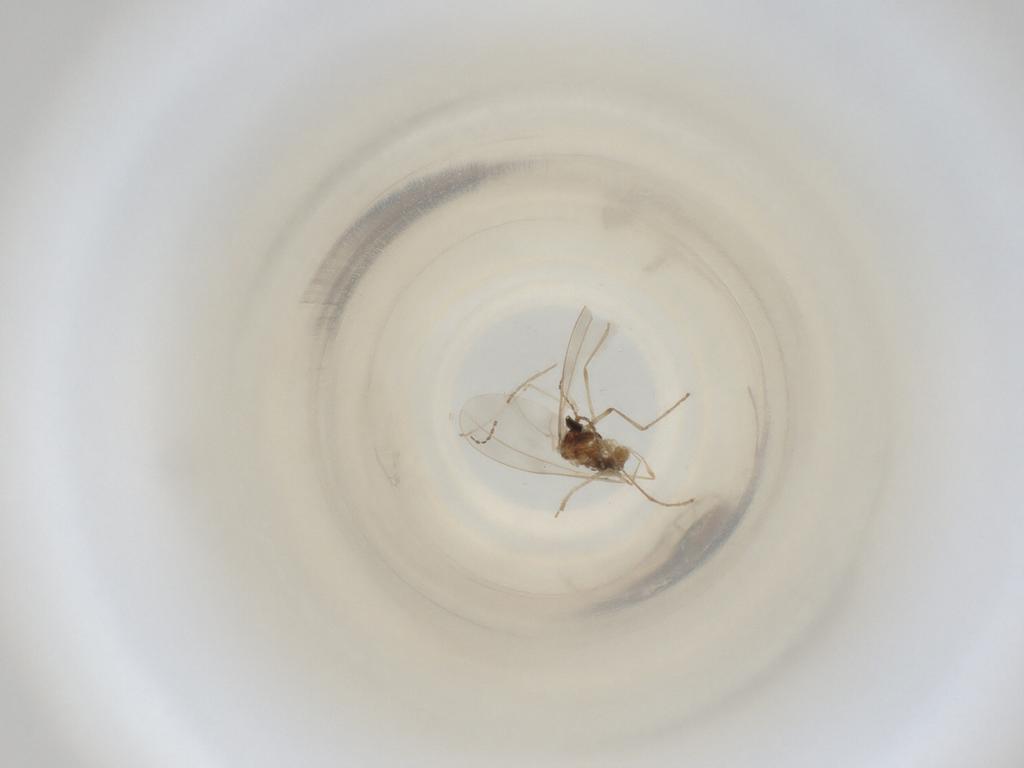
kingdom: Animalia
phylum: Arthropoda
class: Insecta
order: Diptera
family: Cecidomyiidae
